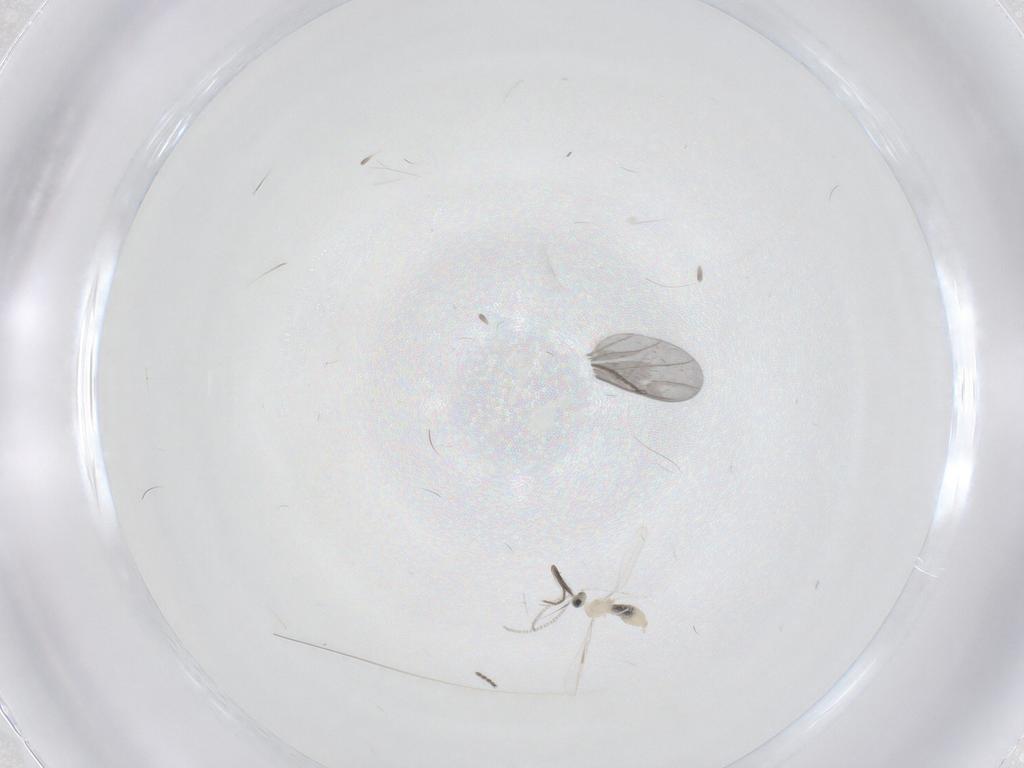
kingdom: Animalia
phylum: Arthropoda
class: Insecta
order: Diptera
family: Cecidomyiidae
